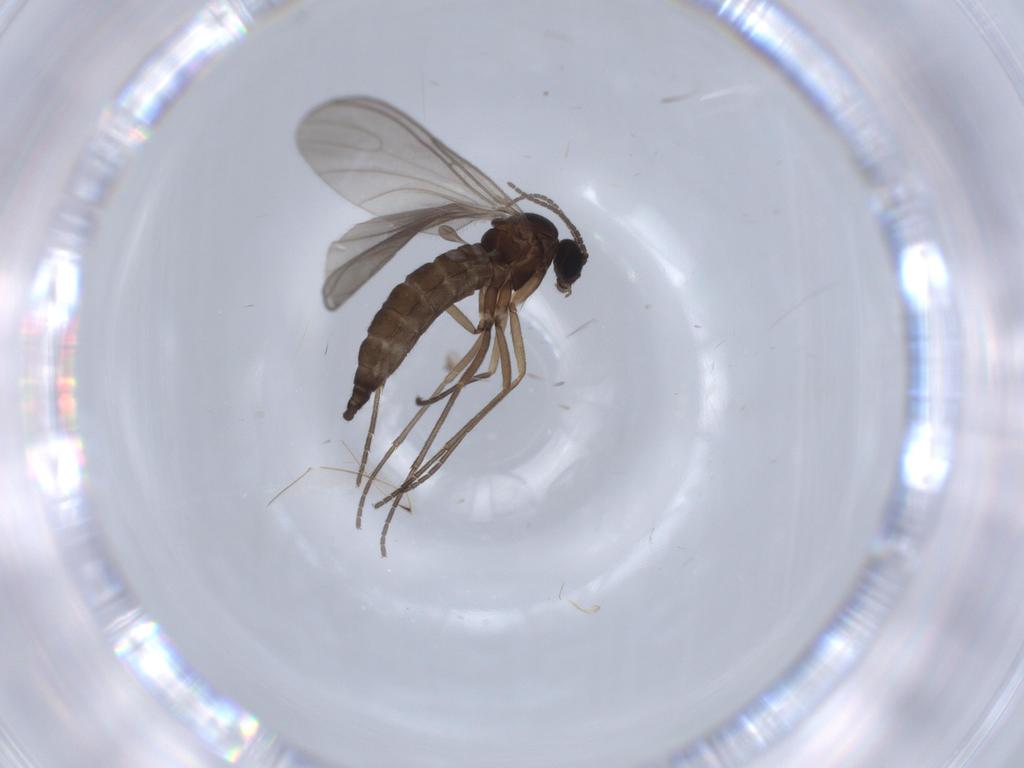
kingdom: Animalia
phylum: Arthropoda
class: Insecta
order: Diptera
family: Sciaridae
